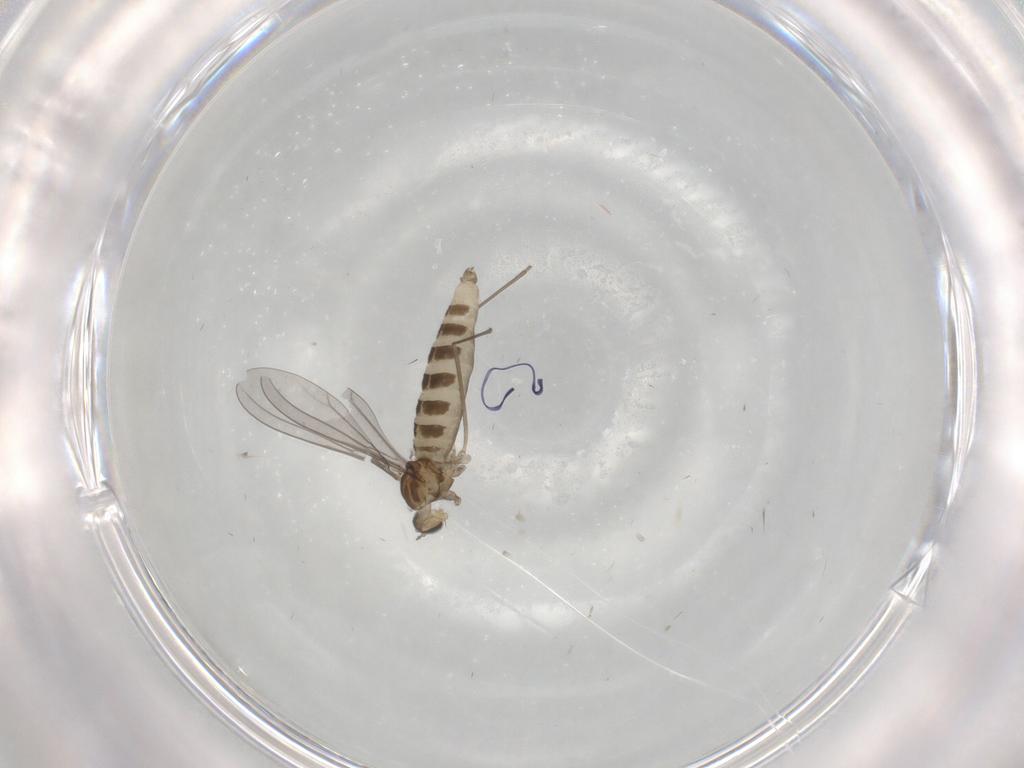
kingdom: Animalia
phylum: Arthropoda
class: Insecta
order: Diptera
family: Cecidomyiidae
